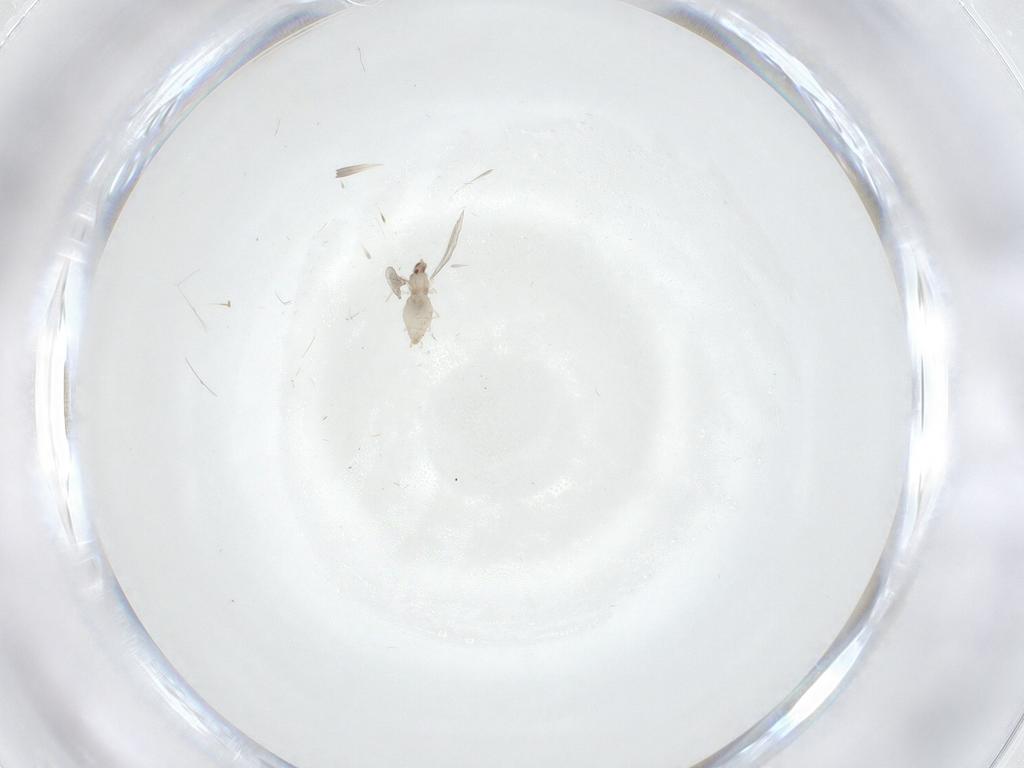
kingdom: Animalia
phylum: Arthropoda
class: Insecta
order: Diptera
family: Cecidomyiidae
